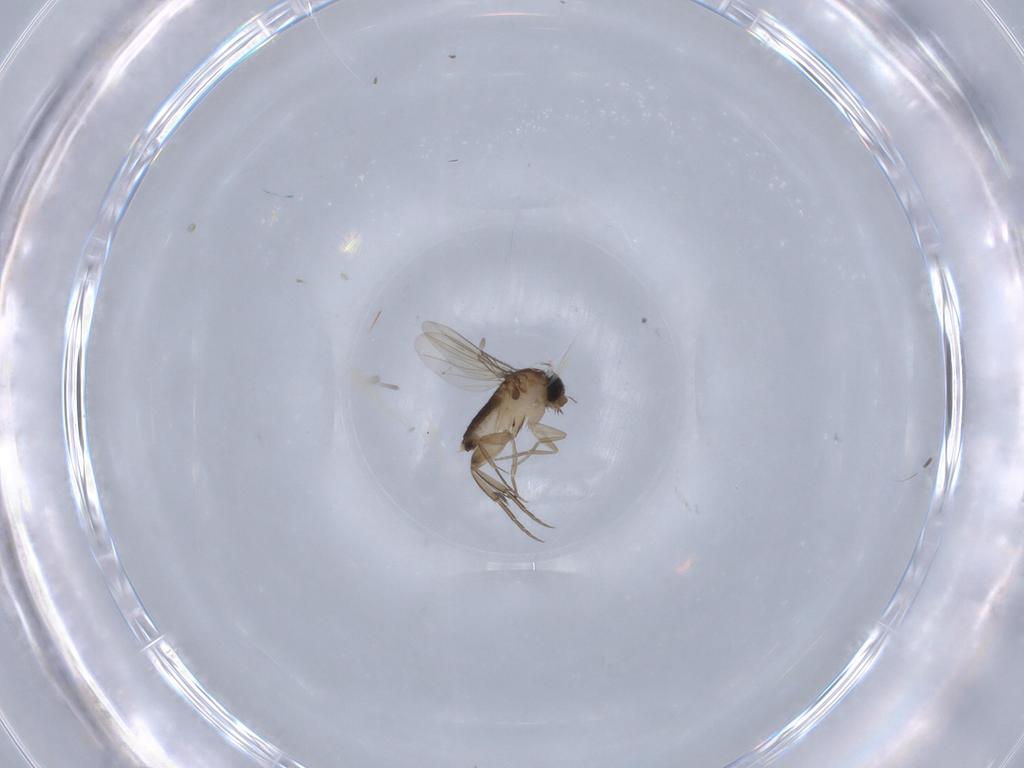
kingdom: Animalia
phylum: Arthropoda
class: Insecta
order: Diptera
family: Phoridae
